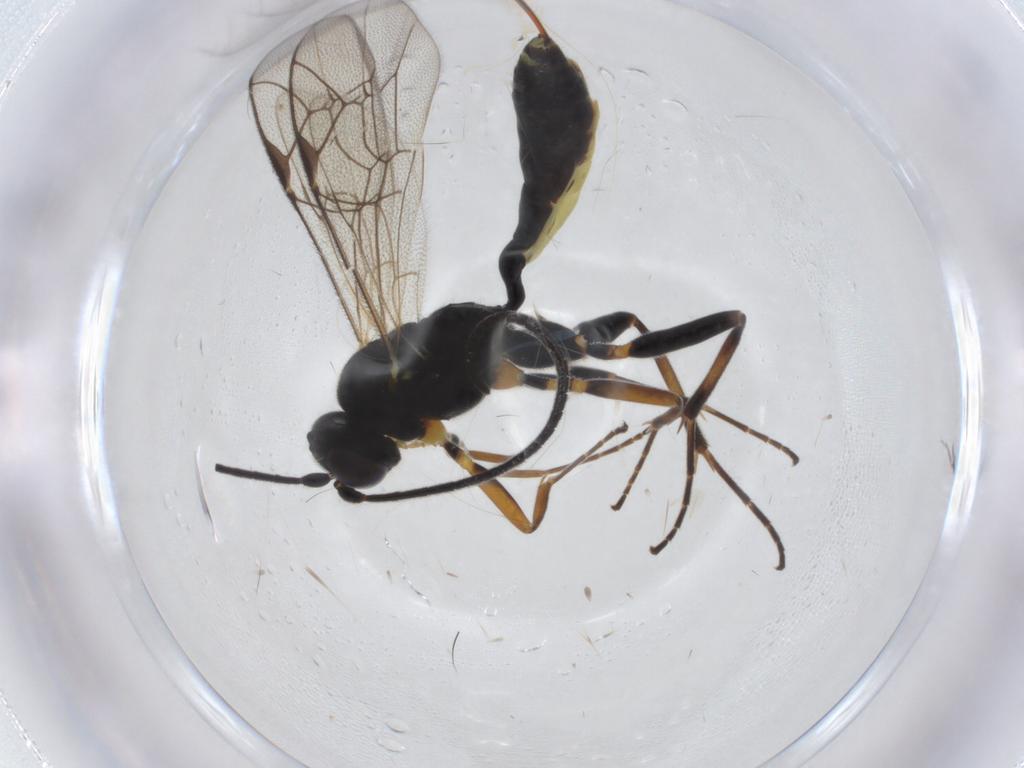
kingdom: Animalia
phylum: Arthropoda
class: Insecta
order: Hymenoptera
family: Ichneumonidae
